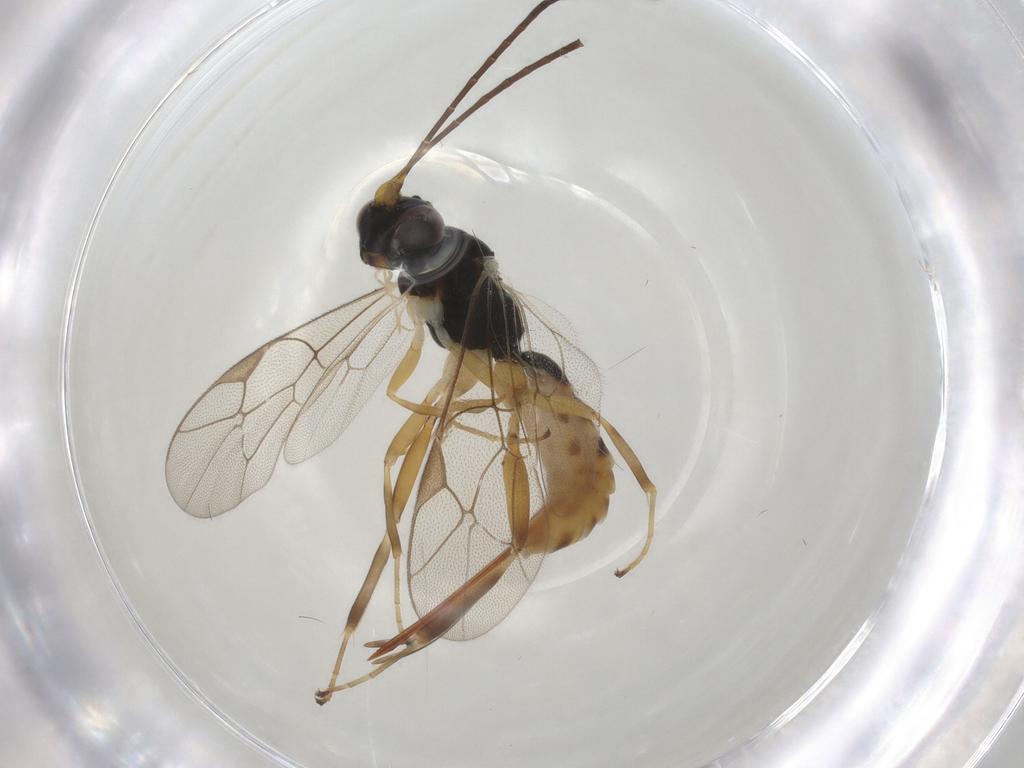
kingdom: Animalia
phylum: Arthropoda
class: Insecta
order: Hymenoptera
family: Ichneumonidae
